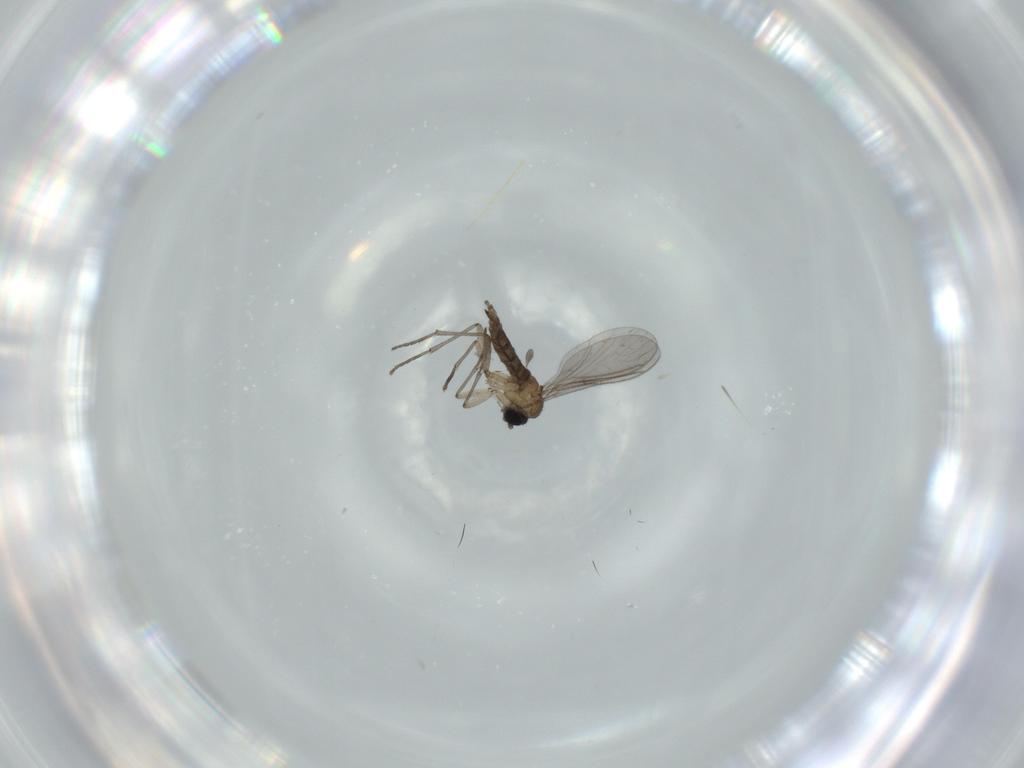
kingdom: Animalia
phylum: Arthropoda
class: Insecta
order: Diptera
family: Sciaridae
